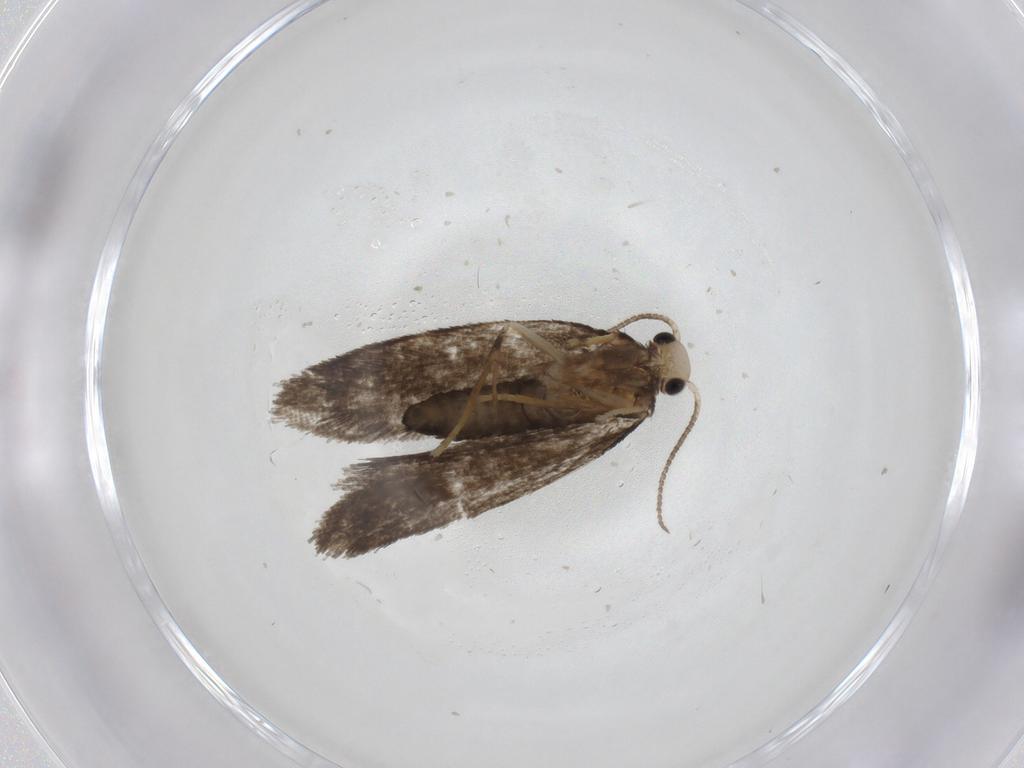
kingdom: Animalia
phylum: Arthropoda
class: Insecta
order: Lepidoptera
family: Psychidae
